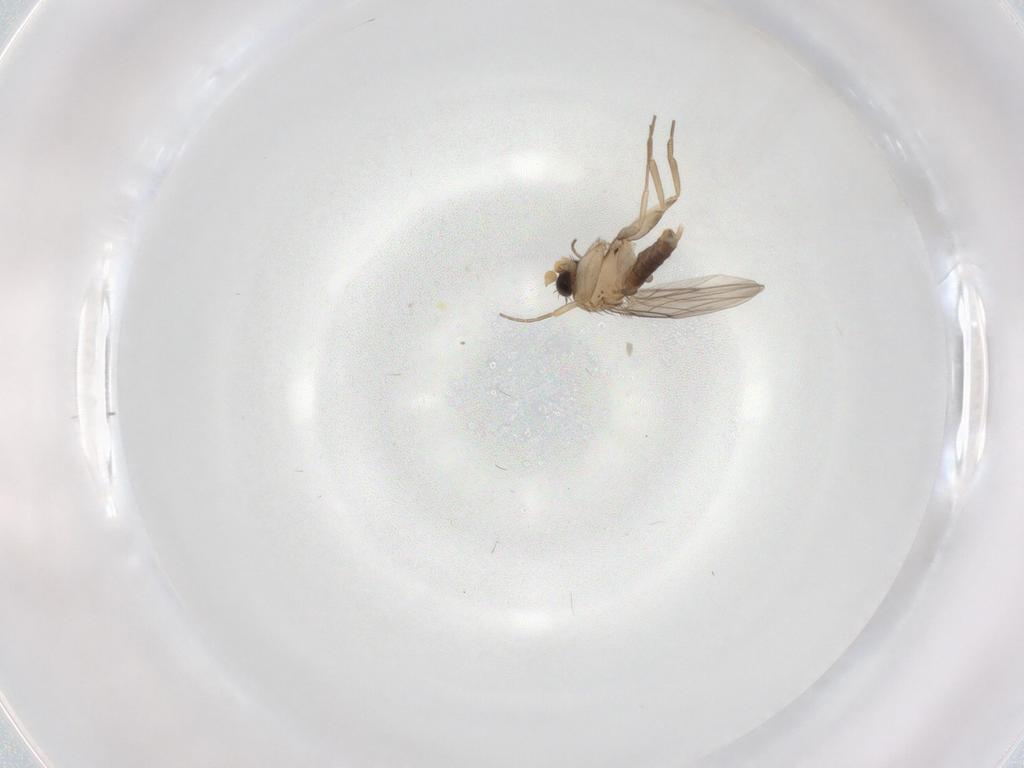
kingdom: Animalia
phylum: Arthropoda
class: Insecta
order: Diptera
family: Phoridae
